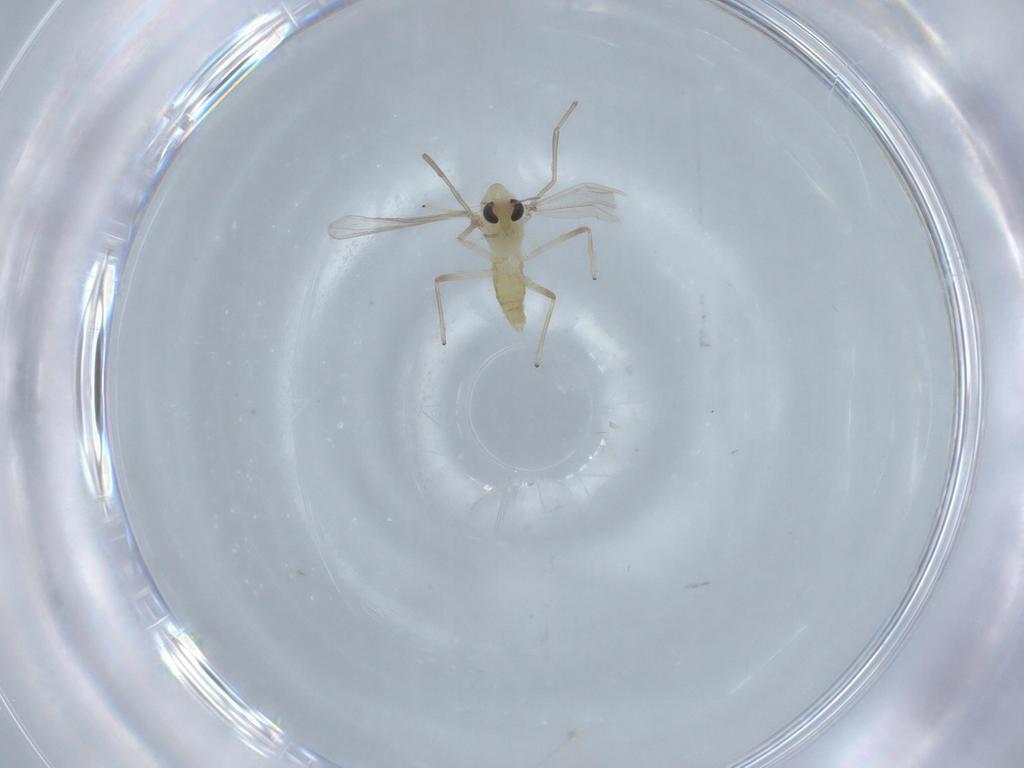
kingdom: Animalia
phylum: Arthropoda
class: Insecta
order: Diptera
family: Chironomidae
